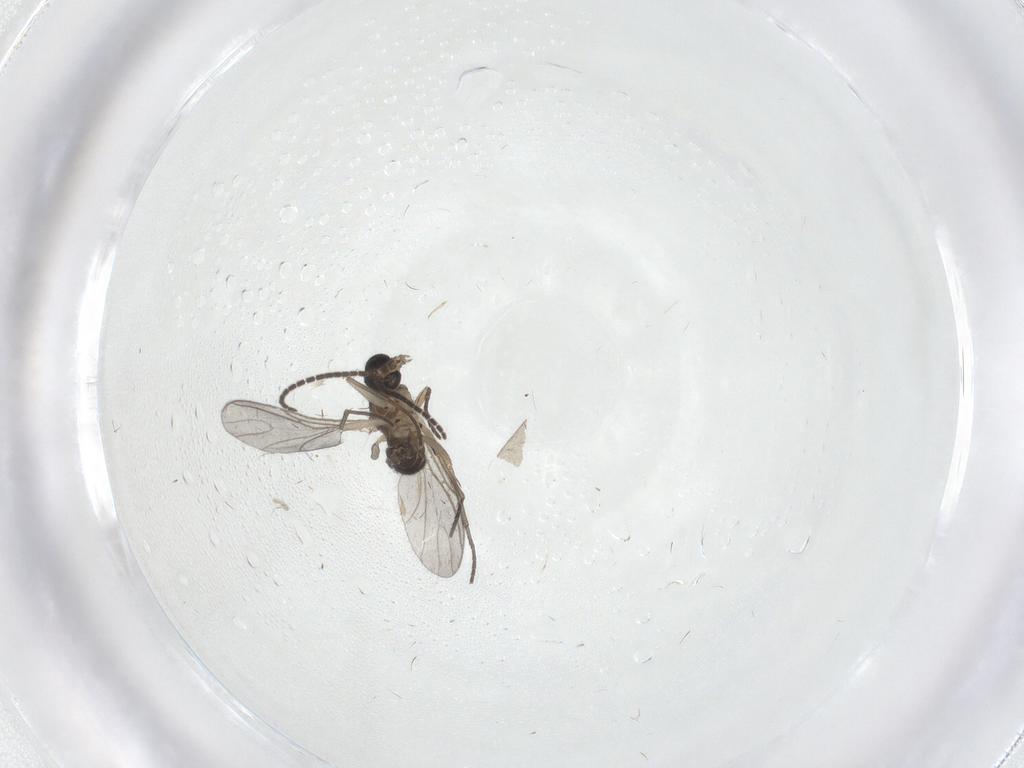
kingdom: Animalia
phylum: Arthropoda
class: Insecta
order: Diptera
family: Sciaridae
